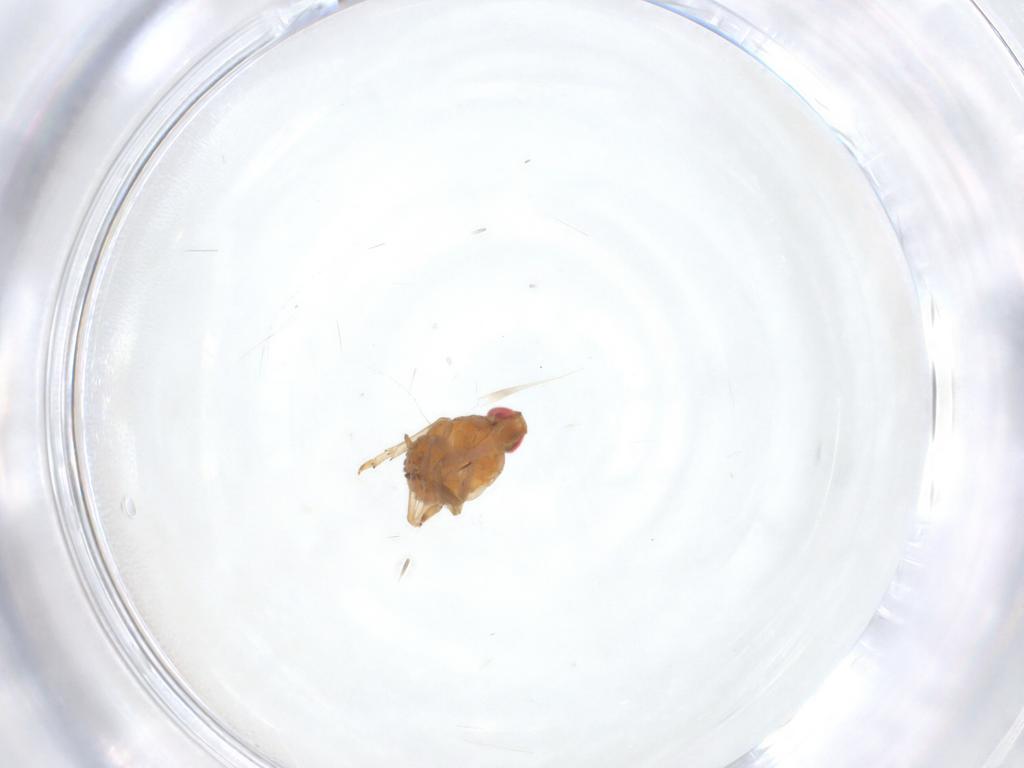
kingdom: Animalia
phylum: Arthropoda
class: Insecta
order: Hemiptera
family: Fulgoroidea_incertae_sedis
